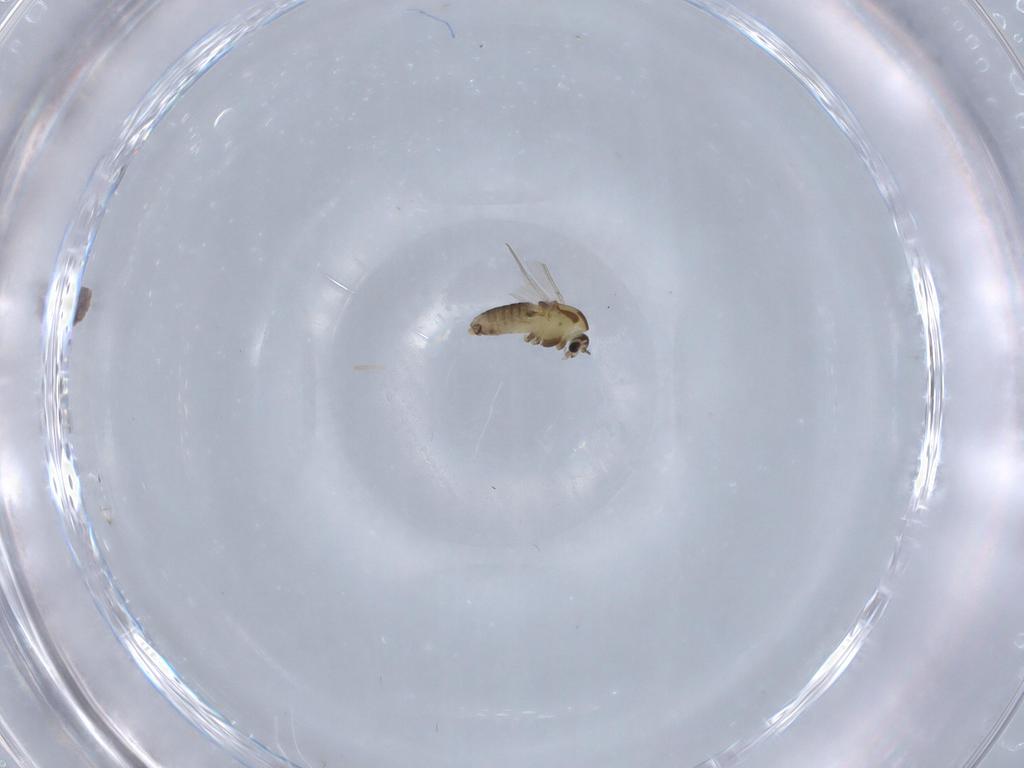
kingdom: Animalia
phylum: Arthropoda
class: Insecta
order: Diptera
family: Chironomidae
